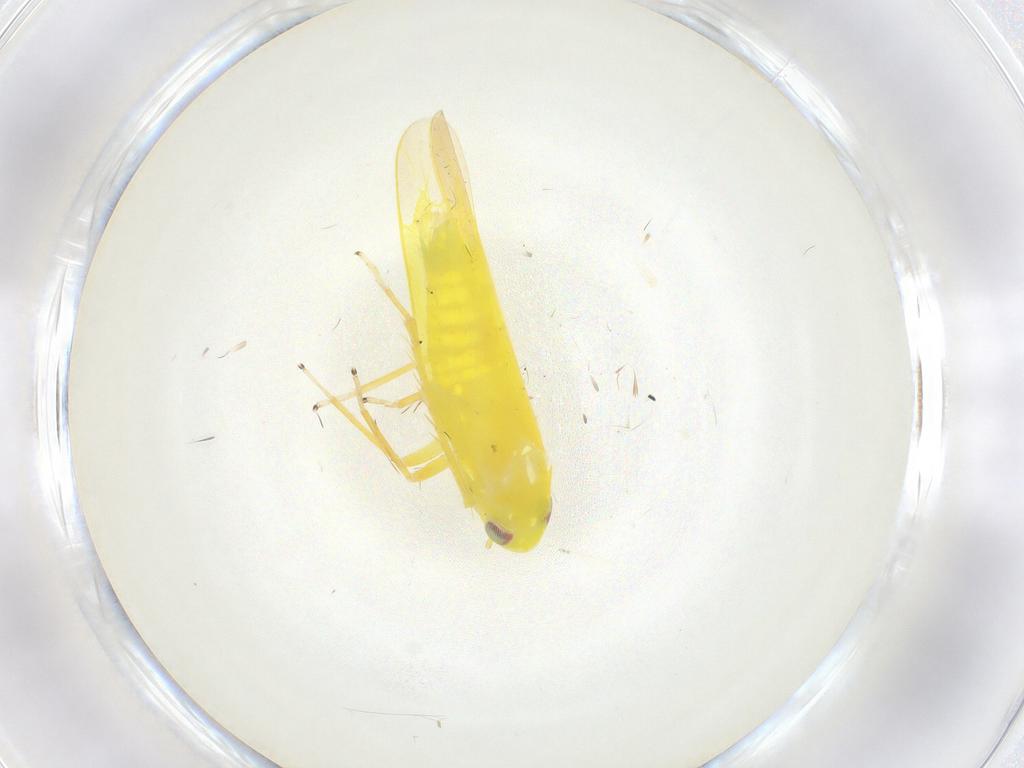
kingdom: Animalia
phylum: Arthropoda
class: Insecta
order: Hemiptera
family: Cicadellidae
